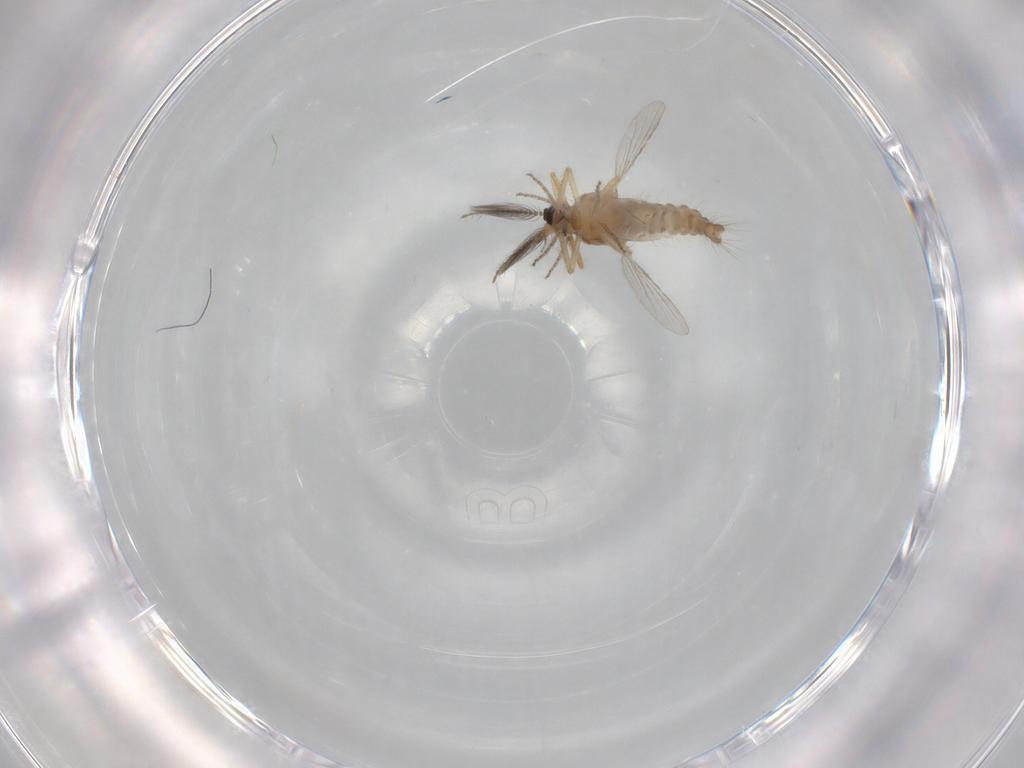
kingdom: Animalia
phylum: Arthropoda
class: Insecta
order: Diptera
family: Ceratopogonidae
